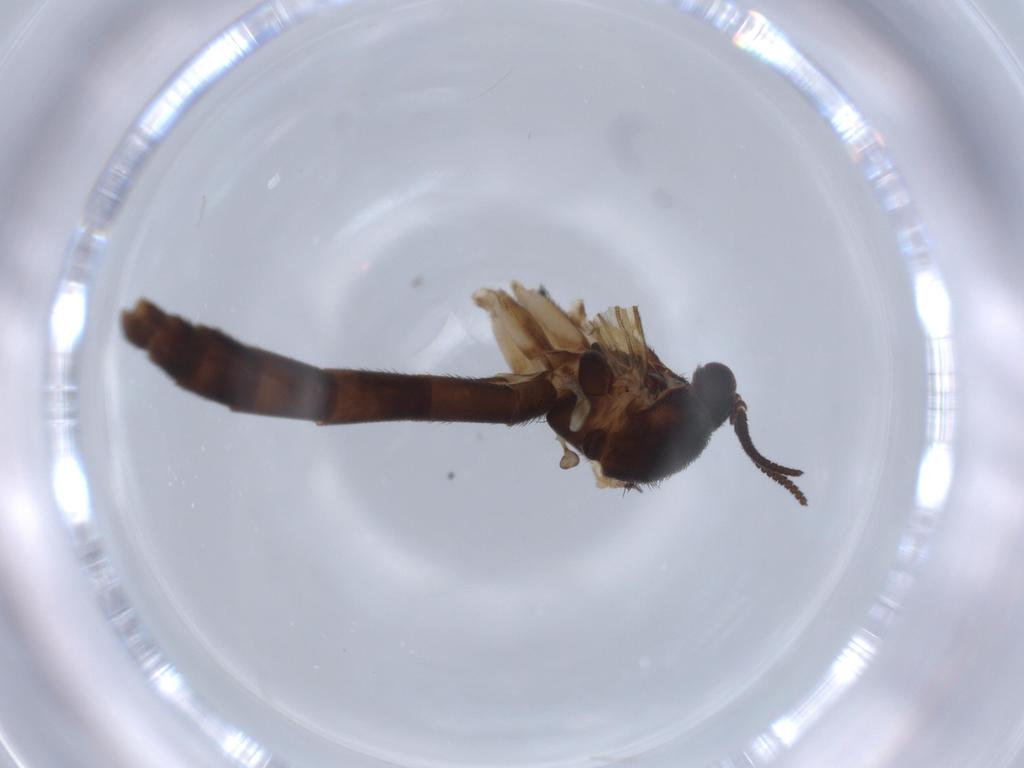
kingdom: Animalia
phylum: Arthropoda
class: Insecta
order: Diptera
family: Keroplatidae
